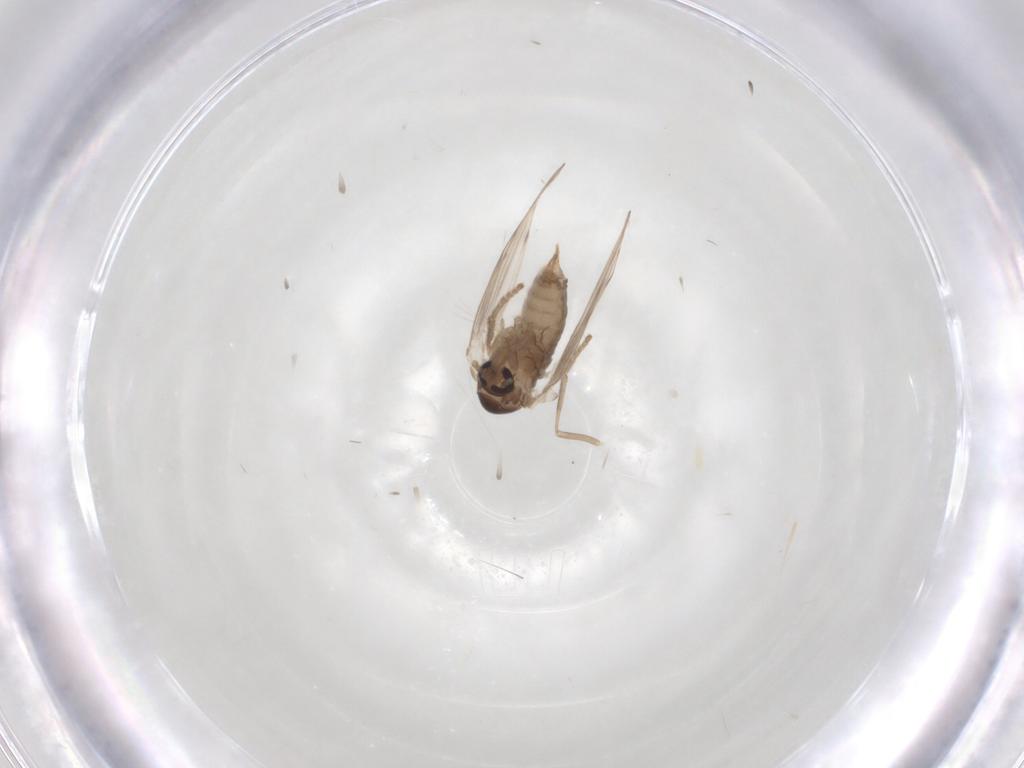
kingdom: Animalia
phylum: Arthropoda
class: Insecta
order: Diptera
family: Psychodidae
